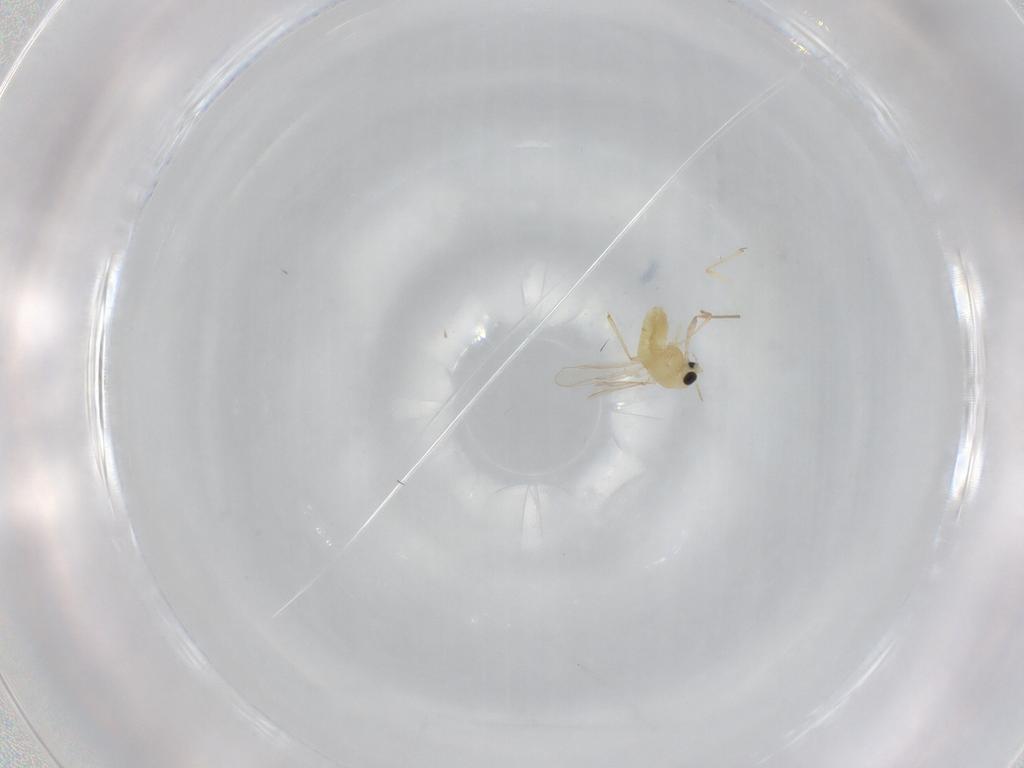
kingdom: Animalia
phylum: Arthropoda
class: Insecta
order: Diptera
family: Chironomidae
